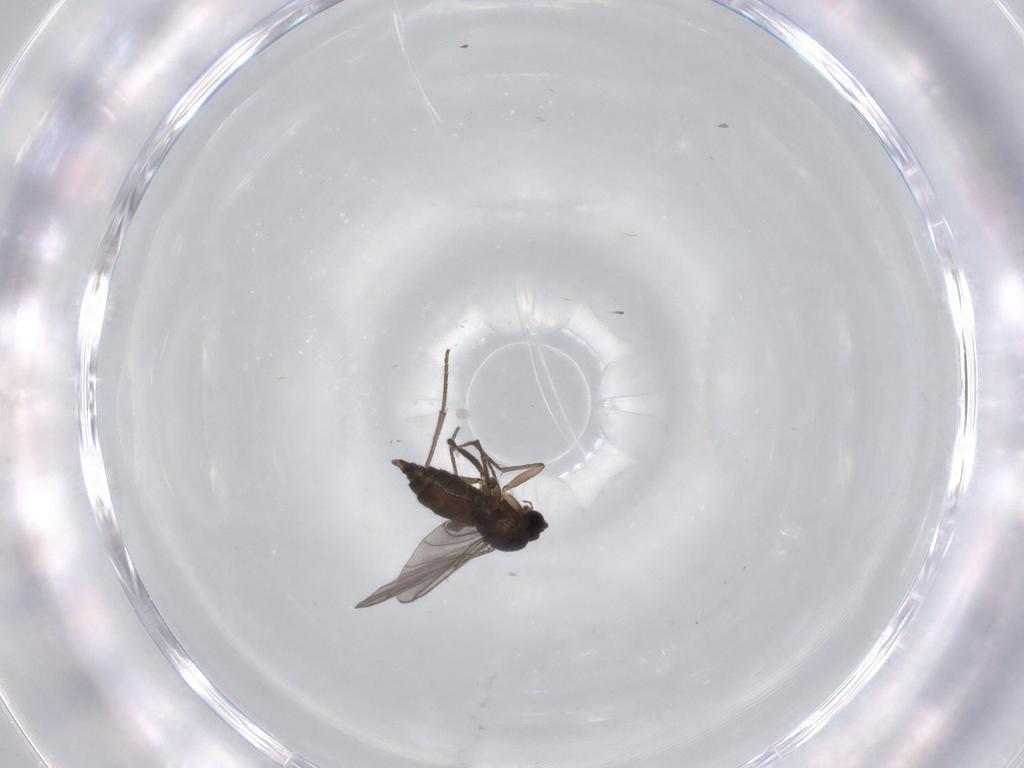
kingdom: Animalia
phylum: Arthropoda
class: Insecta
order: Diptera
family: Sciaridae
